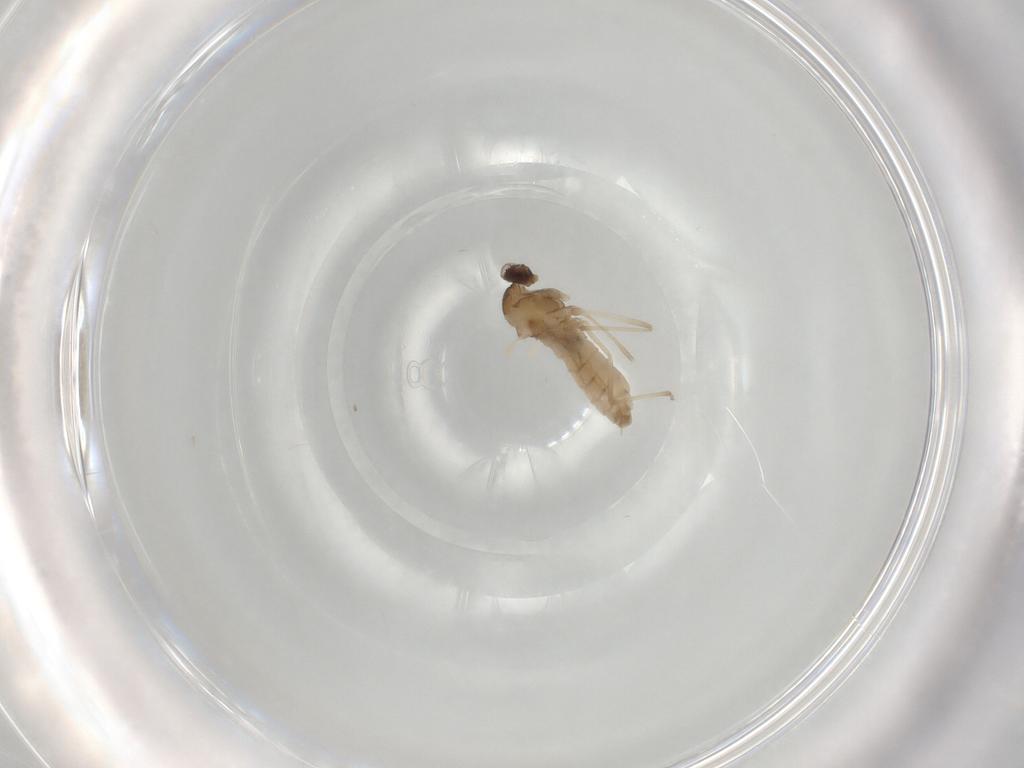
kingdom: Animalia
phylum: Arthropoda
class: Insecta
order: Diptera
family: Cecidomyiidae
